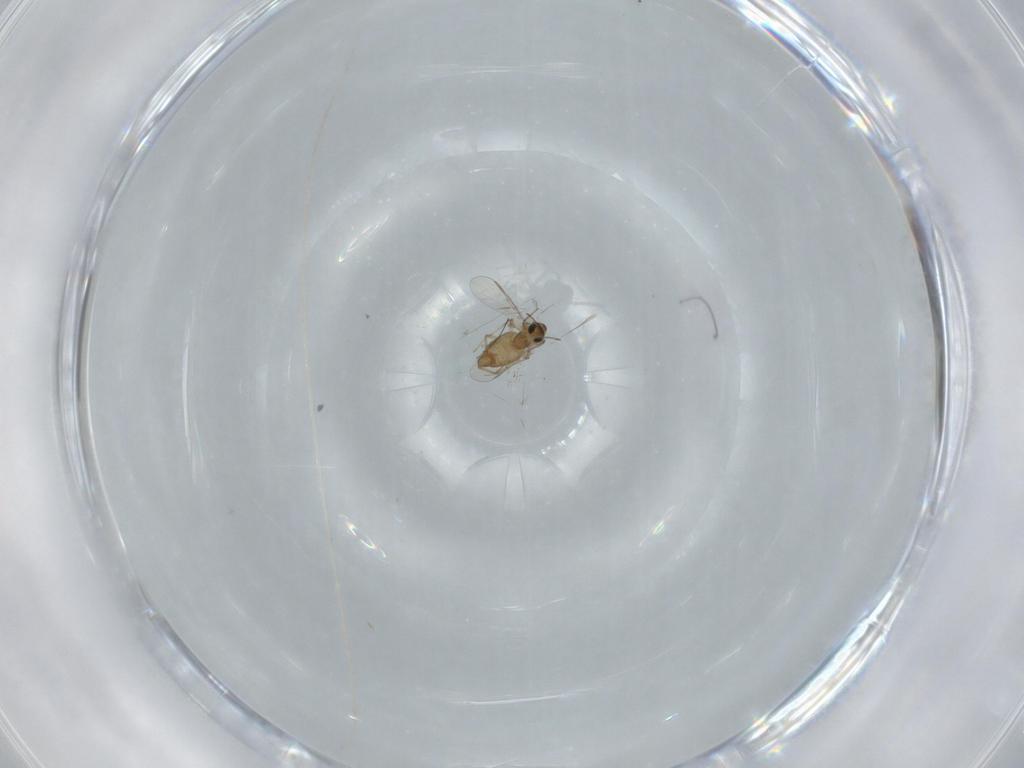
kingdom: Animalia
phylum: Arthropoda
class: Insecta
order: Diptera
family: Chironomidae
